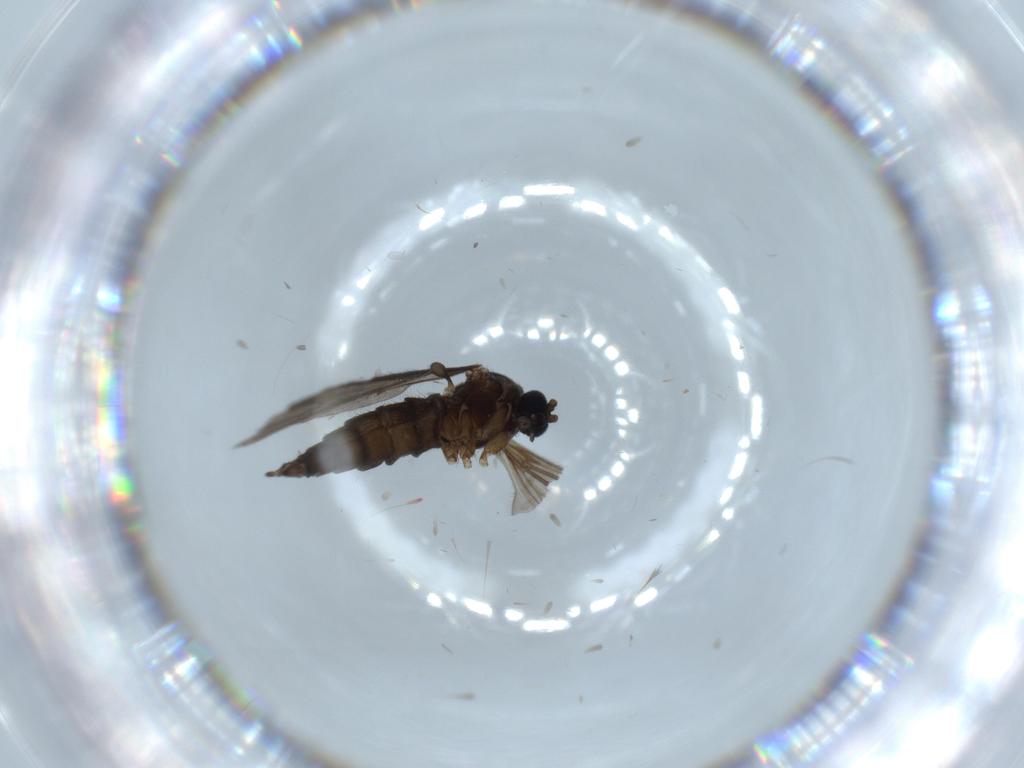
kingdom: Animalia
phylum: Arthropoda
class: Insecta
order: Diptera
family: Sciaridae
